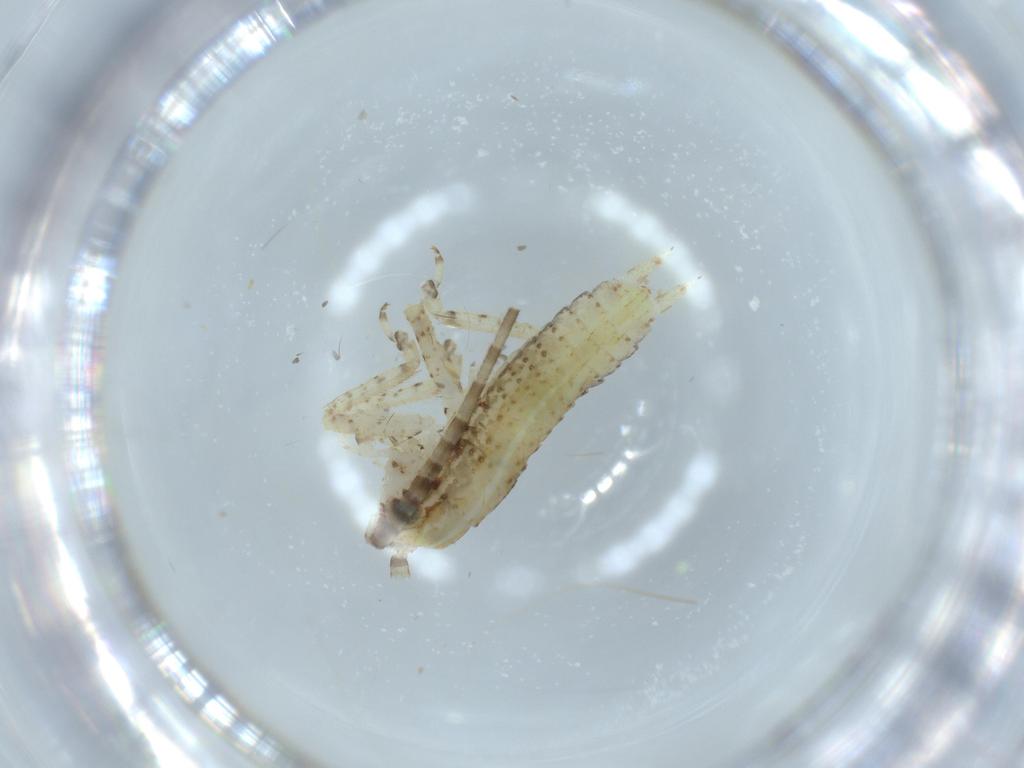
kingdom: Animalia
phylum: Arthropoda
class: Insecta
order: Orthoptera
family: Gryllidae
